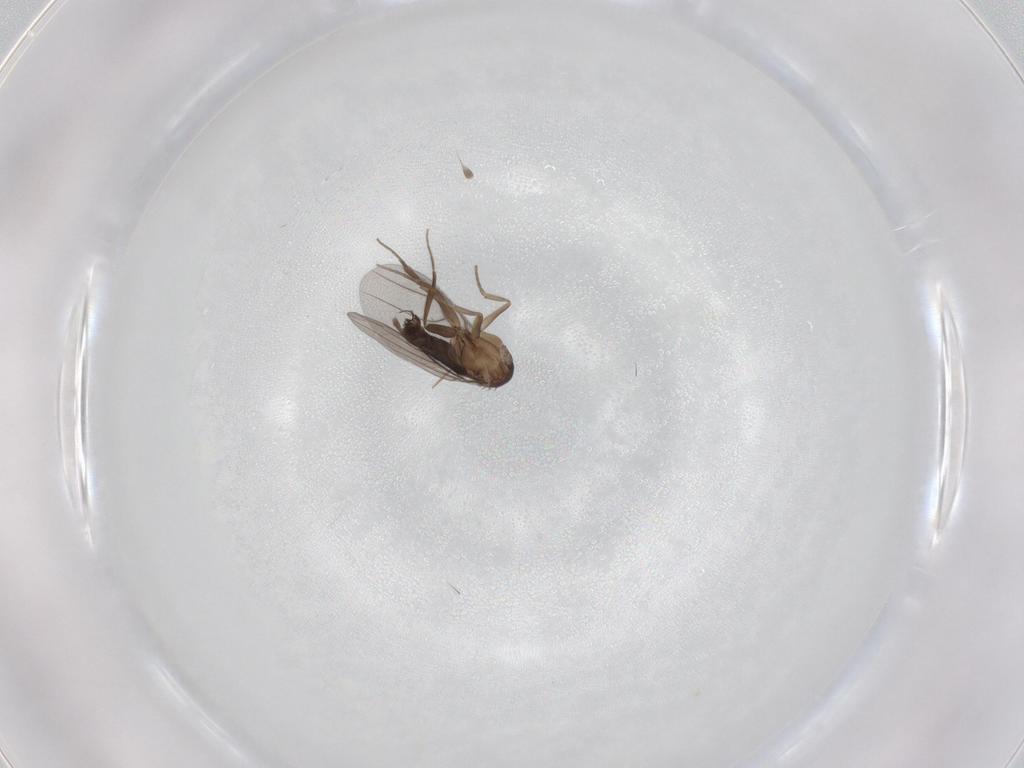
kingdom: Animalia
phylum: Arthropoda
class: Insecta
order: Diptera
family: Phoridae
